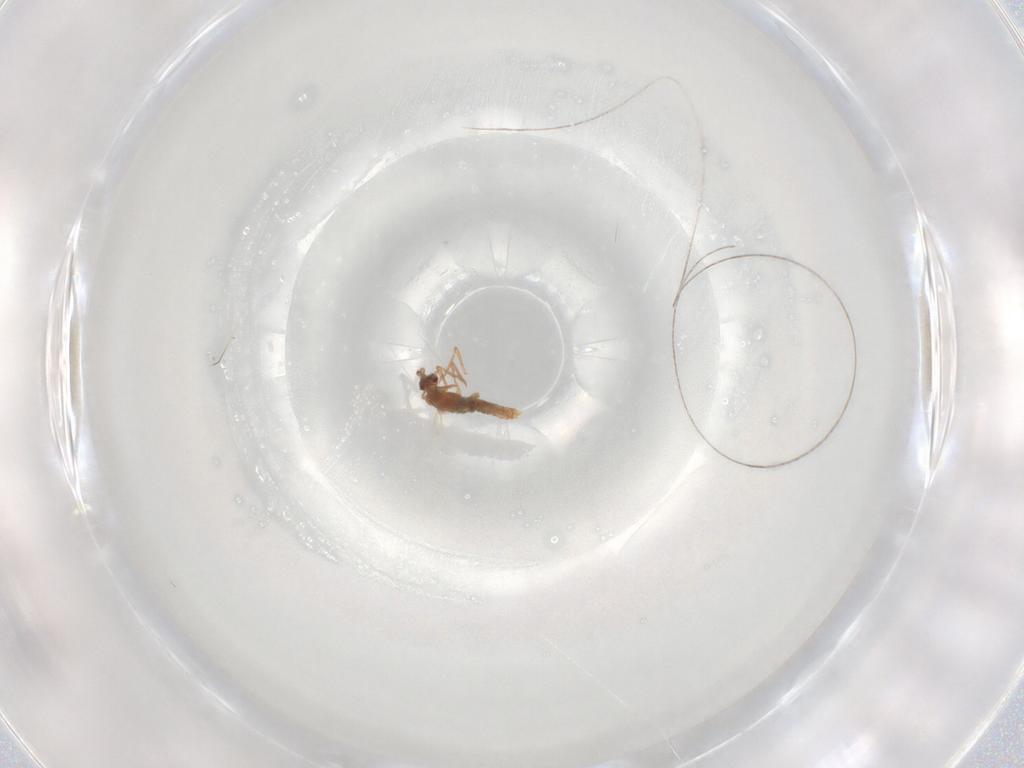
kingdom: Animalia
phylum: Arthropoda
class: Insecta
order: Hemiptera
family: Pseudococcidae
